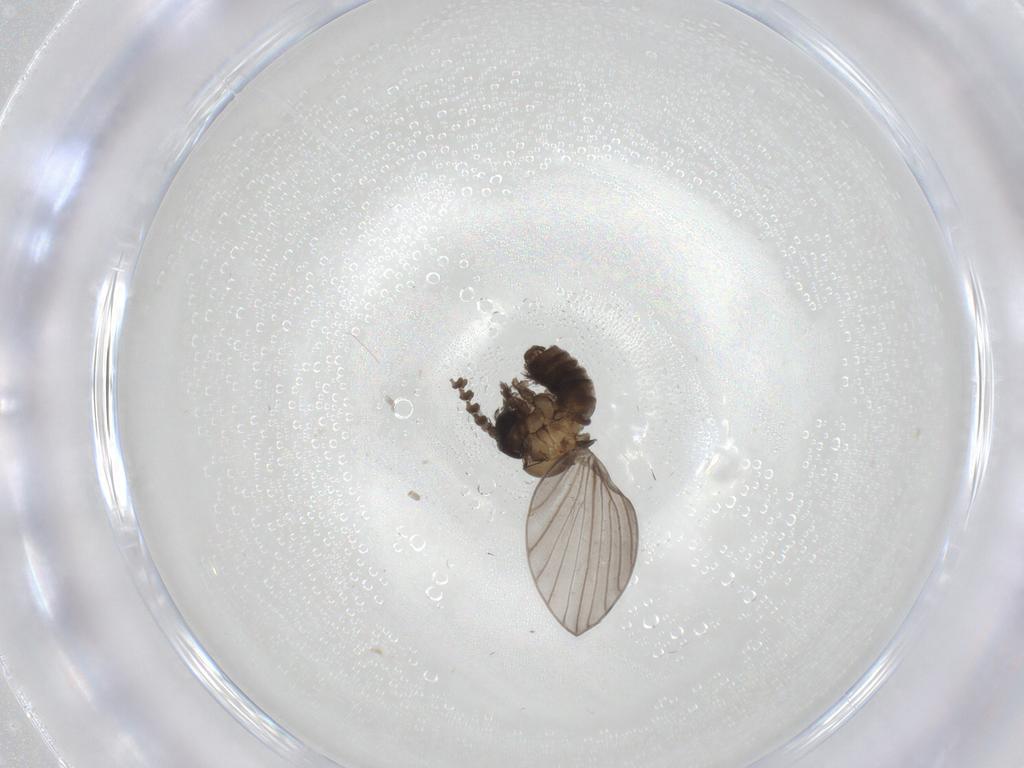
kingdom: Animalia
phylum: Arthropoda
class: Insecta
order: Diptera
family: Psychodidae
